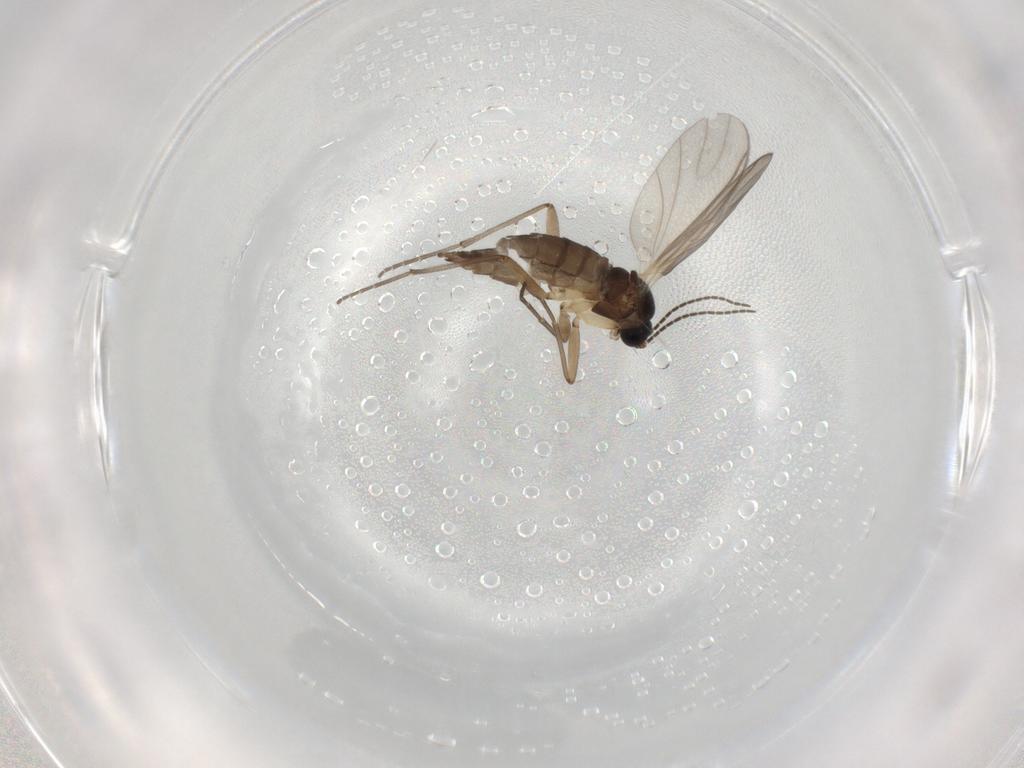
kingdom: Animalia
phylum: Arthropoda
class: Insecta
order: Diptera
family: Sciaridae
